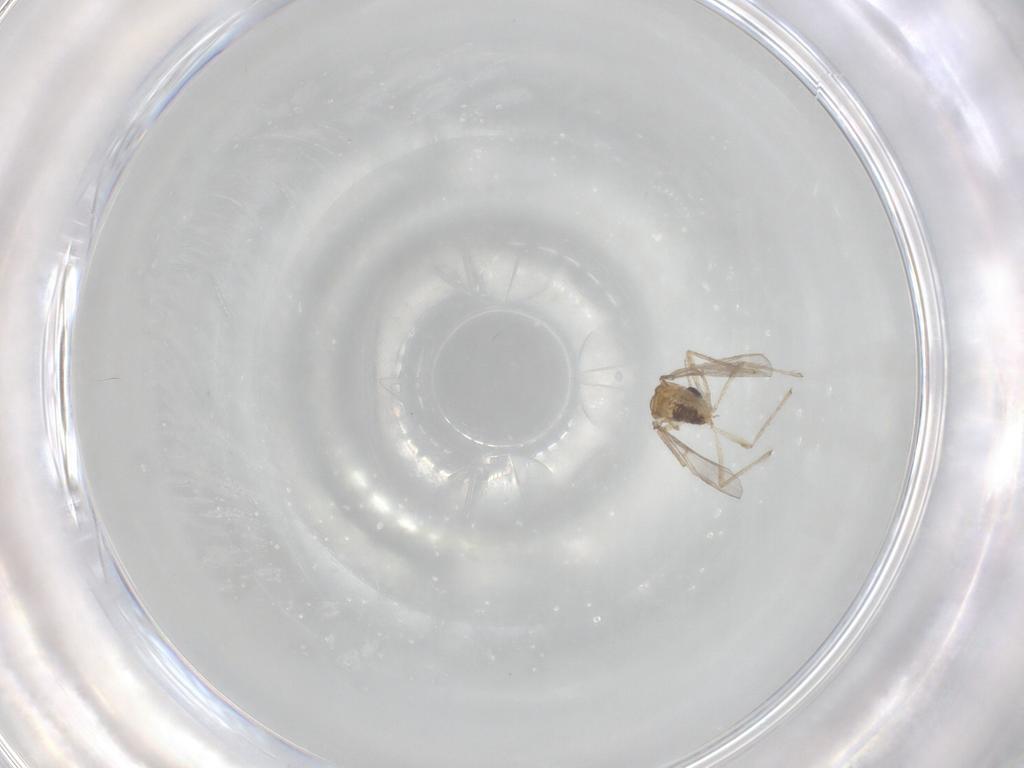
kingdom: Animalia
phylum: Arthropoda
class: Insecta
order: Diptera
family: Chironomidae
